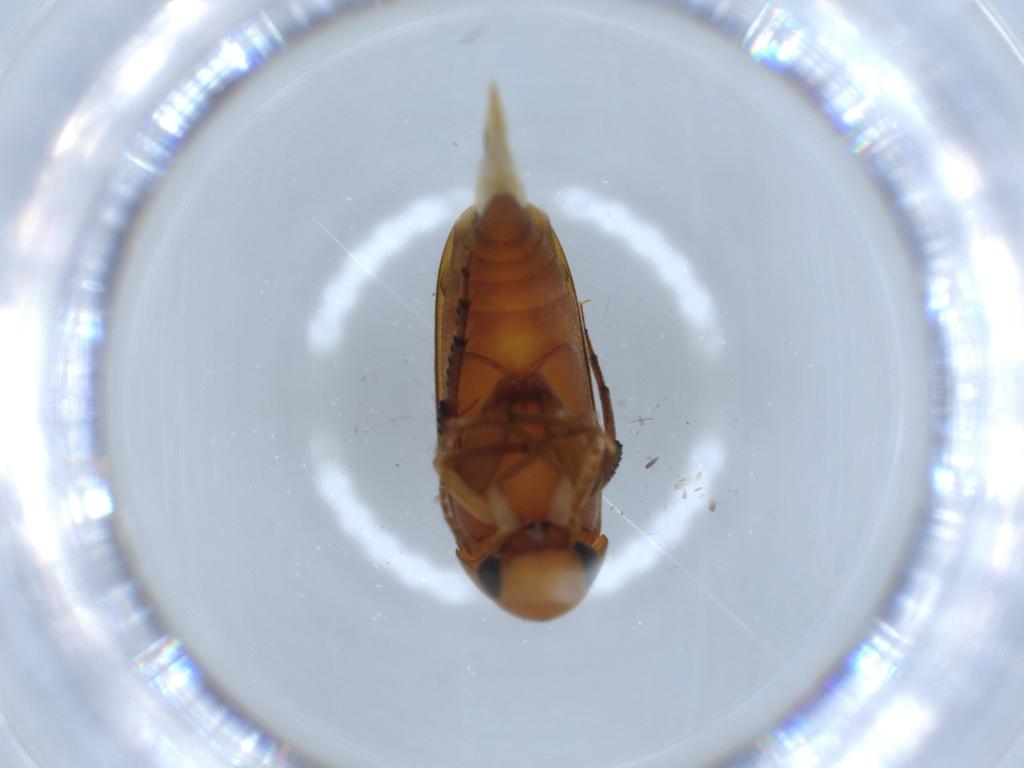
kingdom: Animalia
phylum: Arthropoda
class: Insecta
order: Coleoptera
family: Mordellidae
